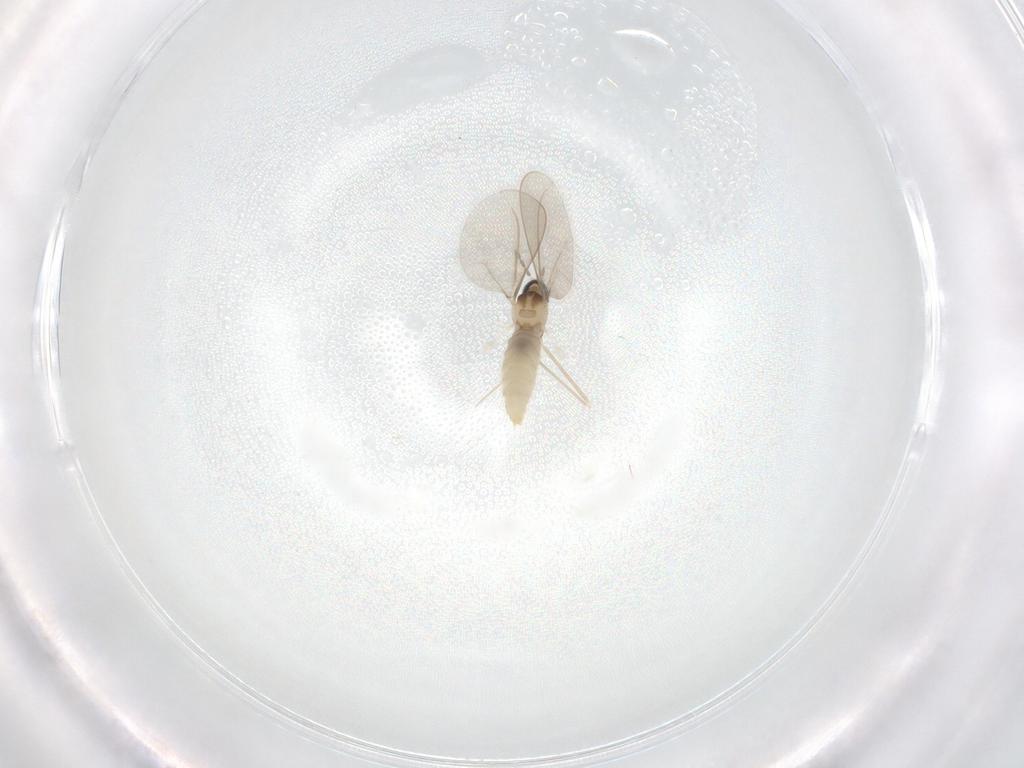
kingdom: Animalia
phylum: Arthropoda
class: Insecta
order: Diptera
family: Cecidomyiidae
